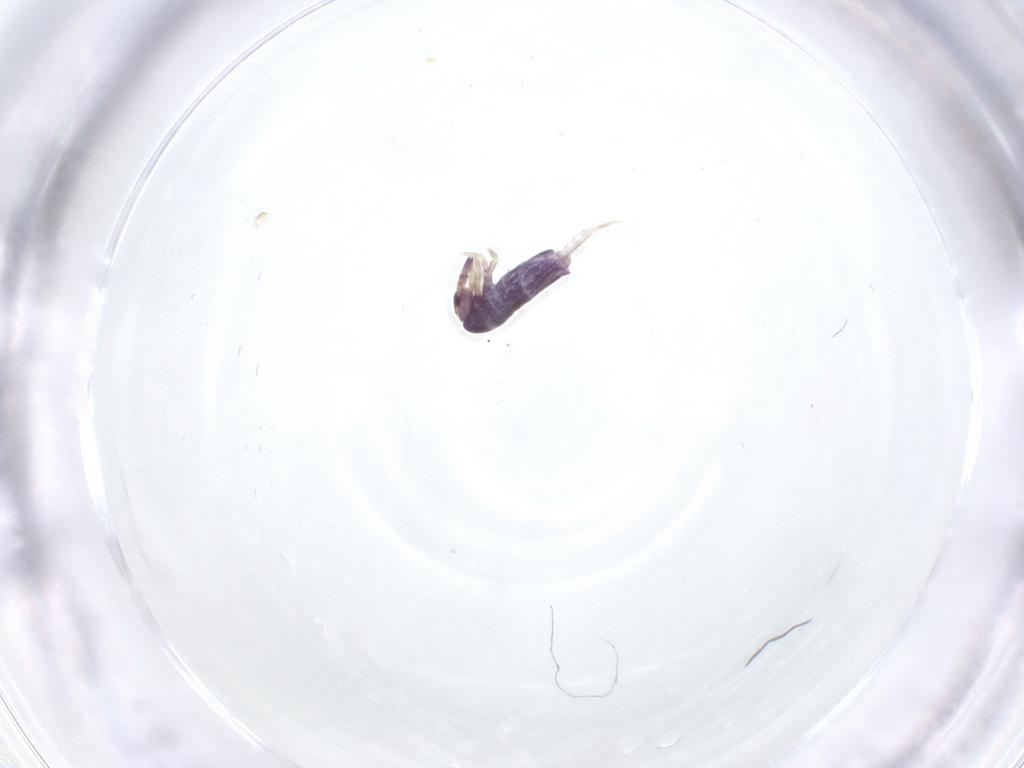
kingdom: Animalia
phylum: Arthropoda
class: Collembola
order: Entomobryomorpha
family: Entomobryidae
